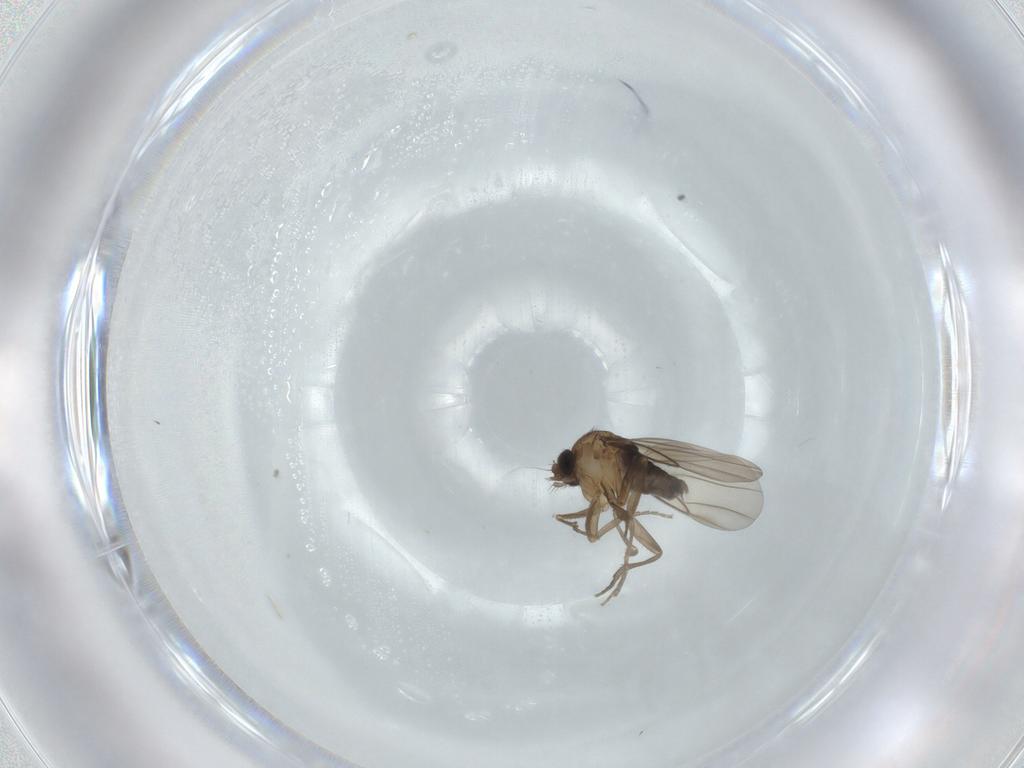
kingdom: Animalia
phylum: Arthropoda
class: Insecta
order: Diptera
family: Phoridae
